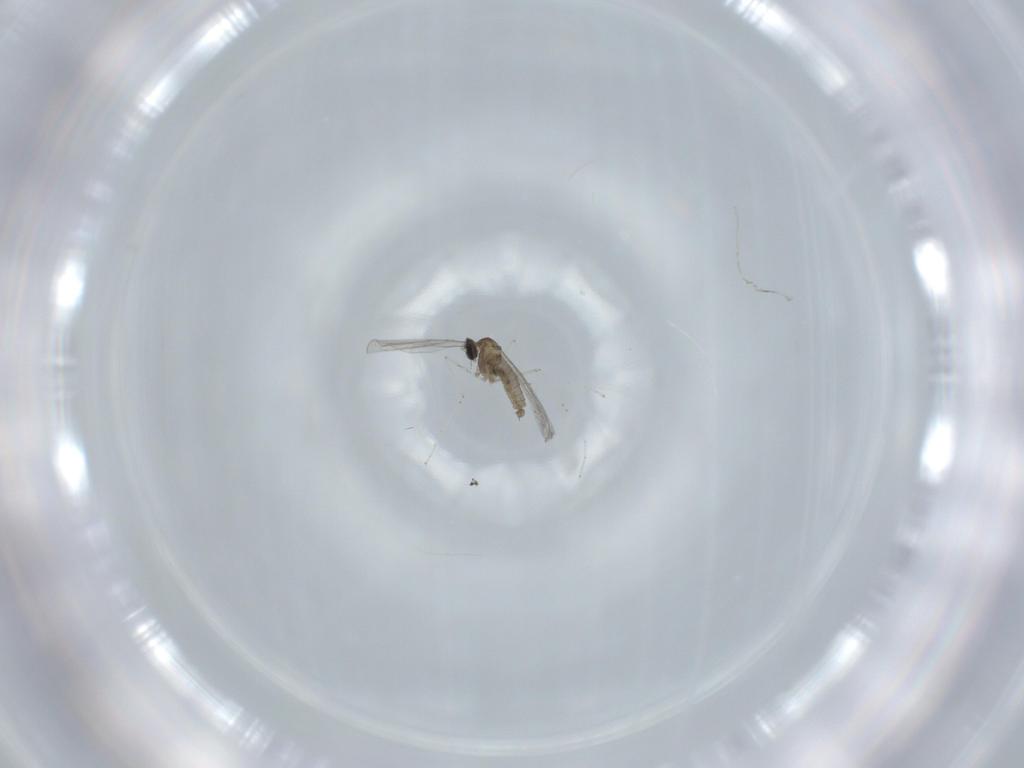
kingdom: Animalia
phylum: Arthropoda
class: Insecta
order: Diptera
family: Cecidomyiidae
